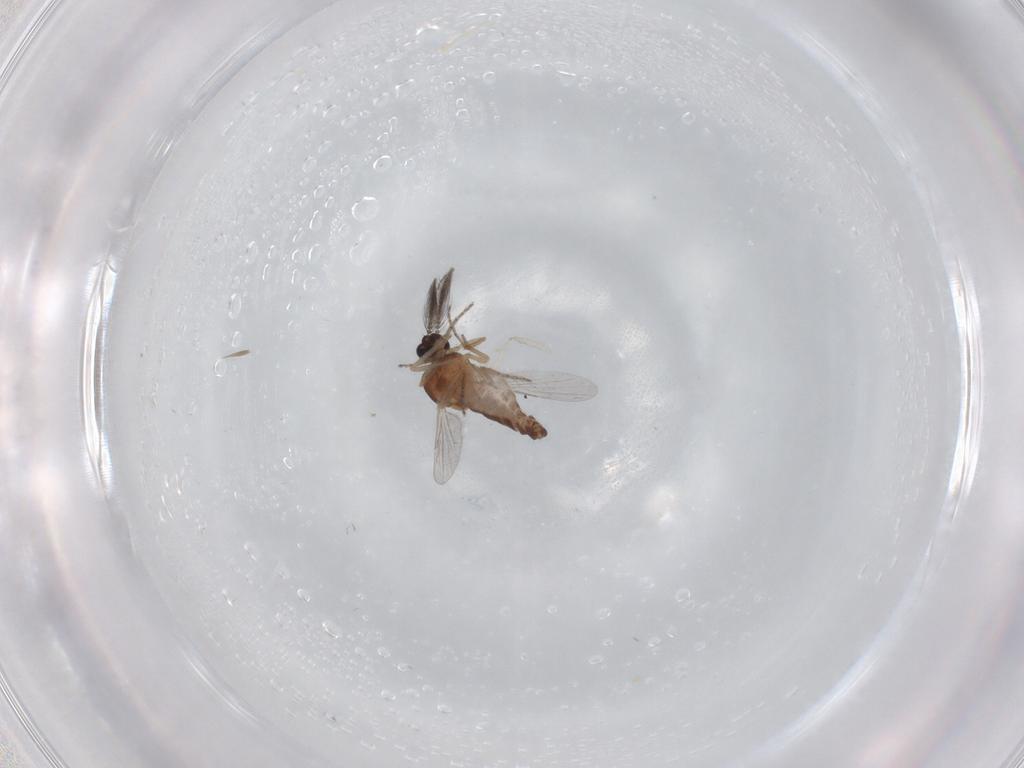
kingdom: Animalia
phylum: Arthropoda
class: Insecta
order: Diptera
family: Ceratopogonidae
